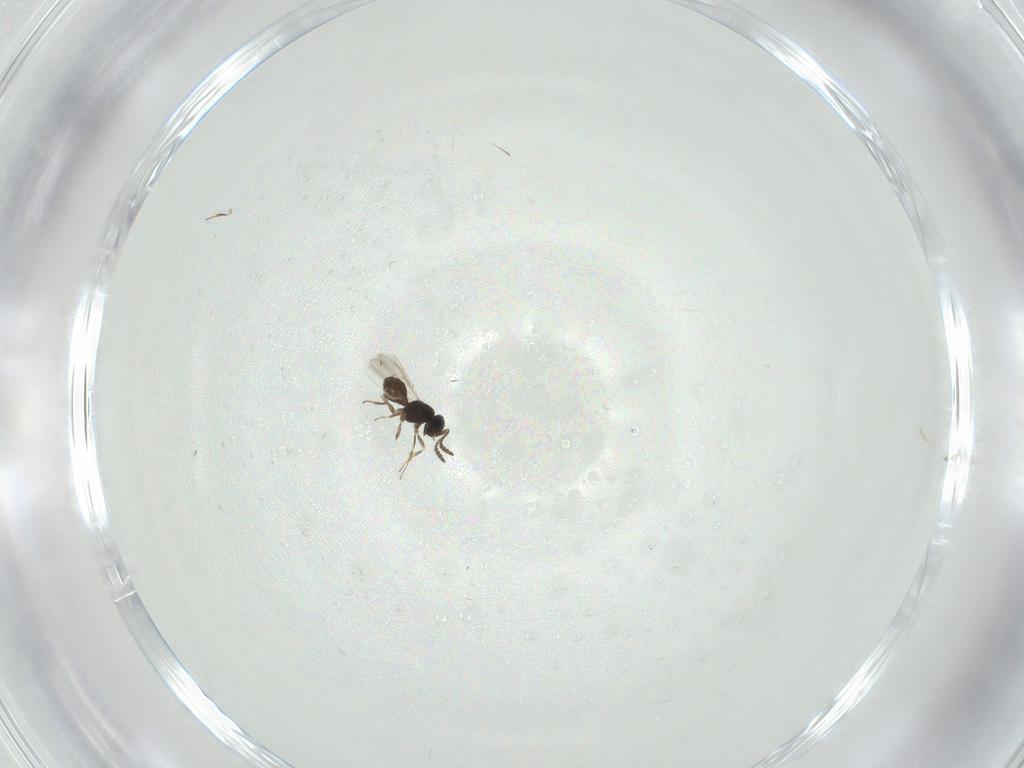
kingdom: Animalia
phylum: Arthropoda
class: Insecta
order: Hymenoptera
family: Scelionidae
